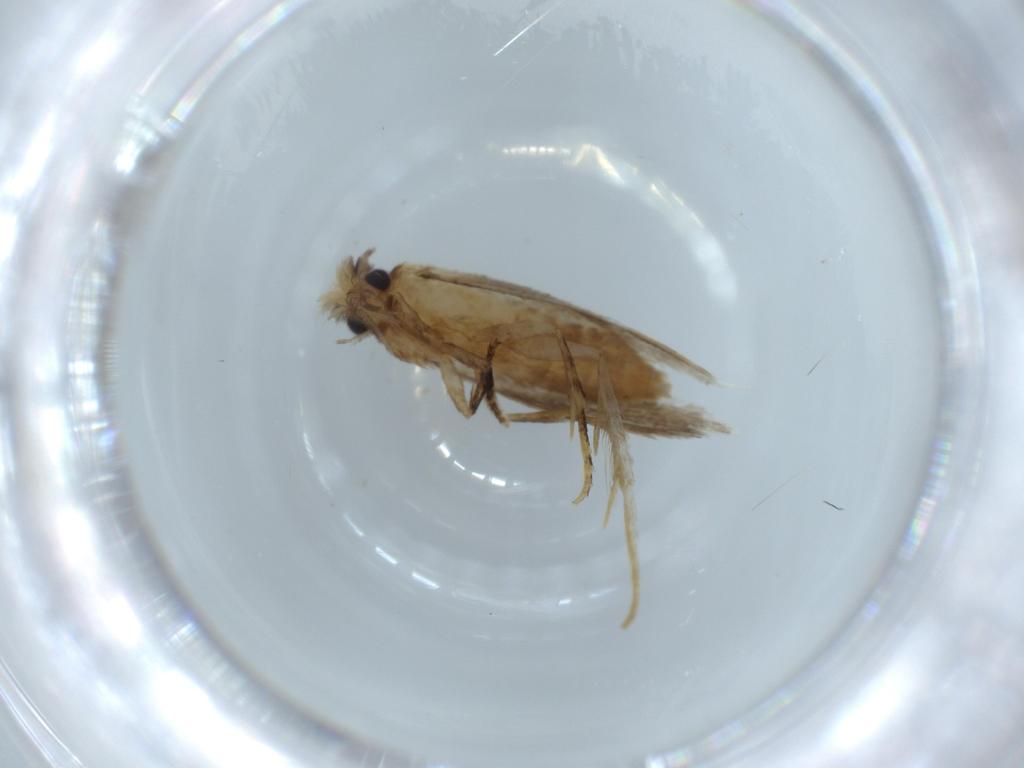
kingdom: Animalia
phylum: Arthropoda
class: Insecta
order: Lepidoptera
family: Tineidae
